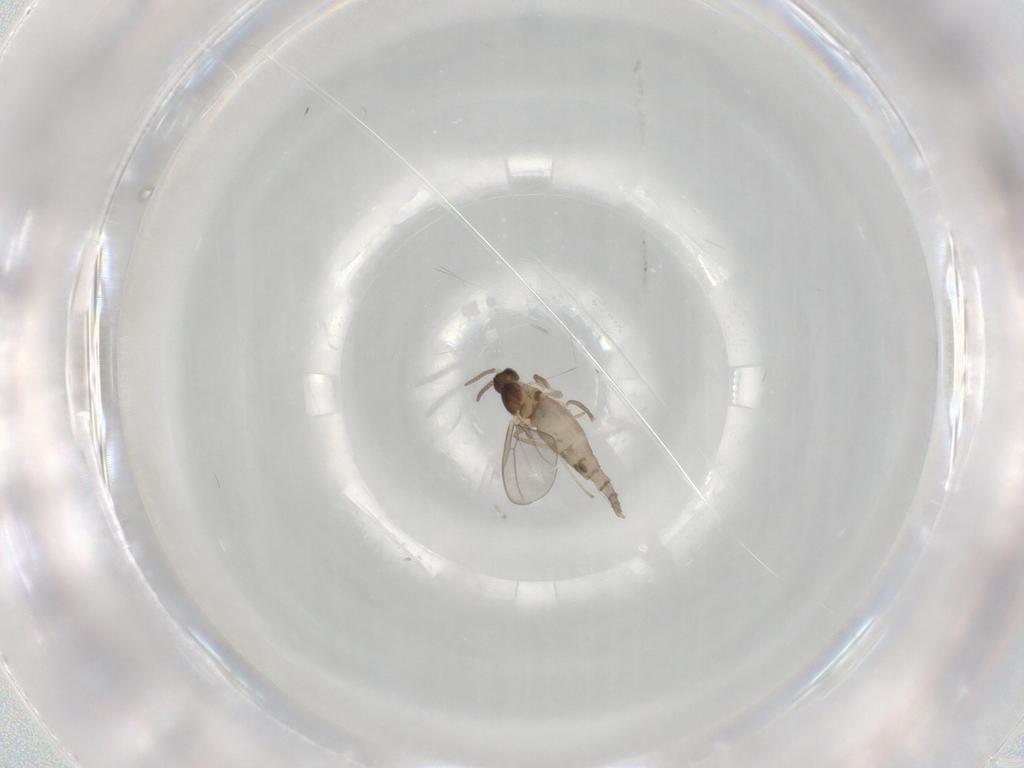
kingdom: Animalia
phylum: Arthropoda
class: Insecta
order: Diptera
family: Cecidomyiidae
